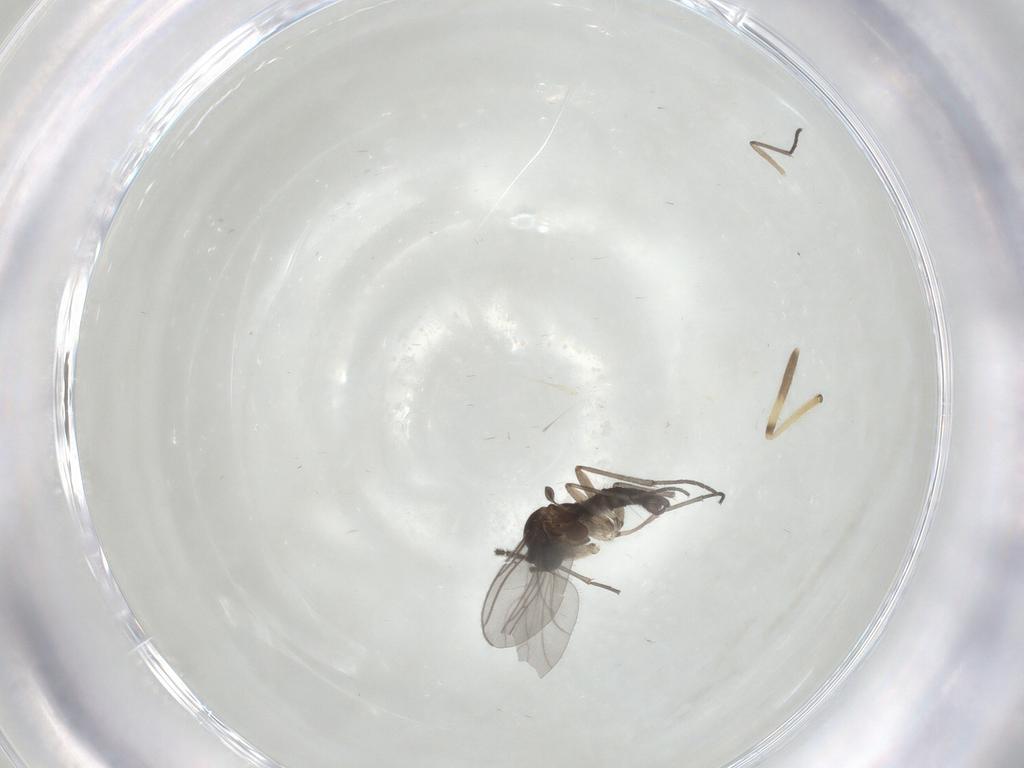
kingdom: Animalia
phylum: Arthropoda
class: Insecta
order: Diptera
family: Sciaridae
